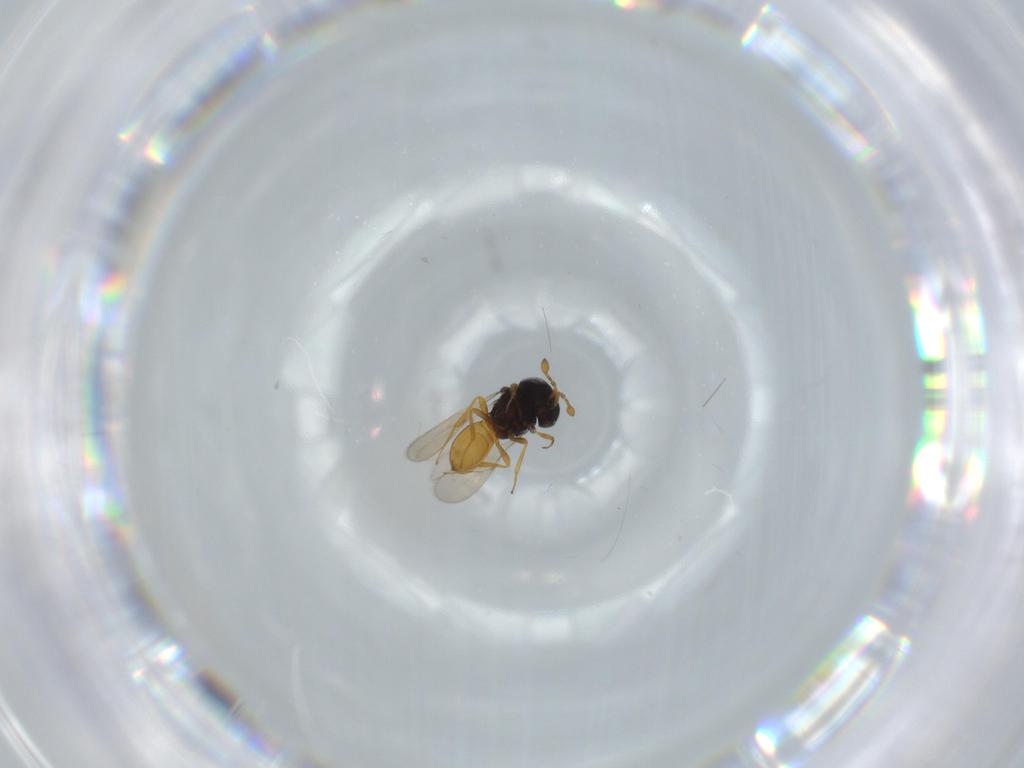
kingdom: Animalia
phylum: Arthropoda
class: Insecta
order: Hymenoptera
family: Scelionidae
